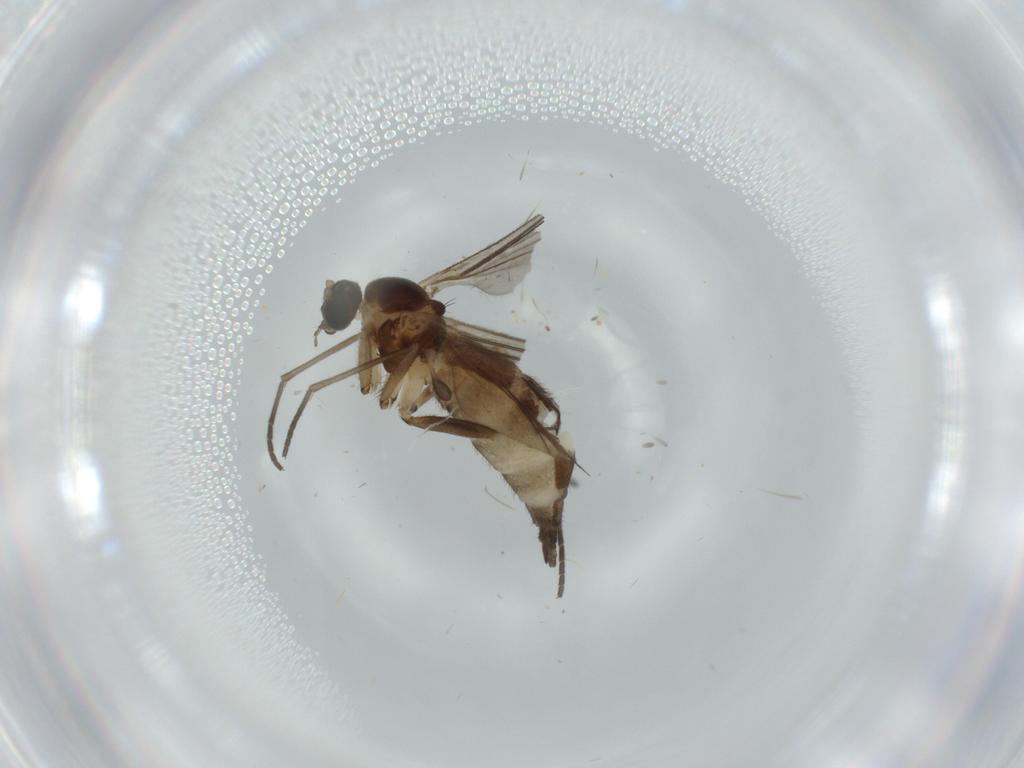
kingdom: Animalia
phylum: Arthropoda
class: Insecta
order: Diptera
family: Sciaridae
